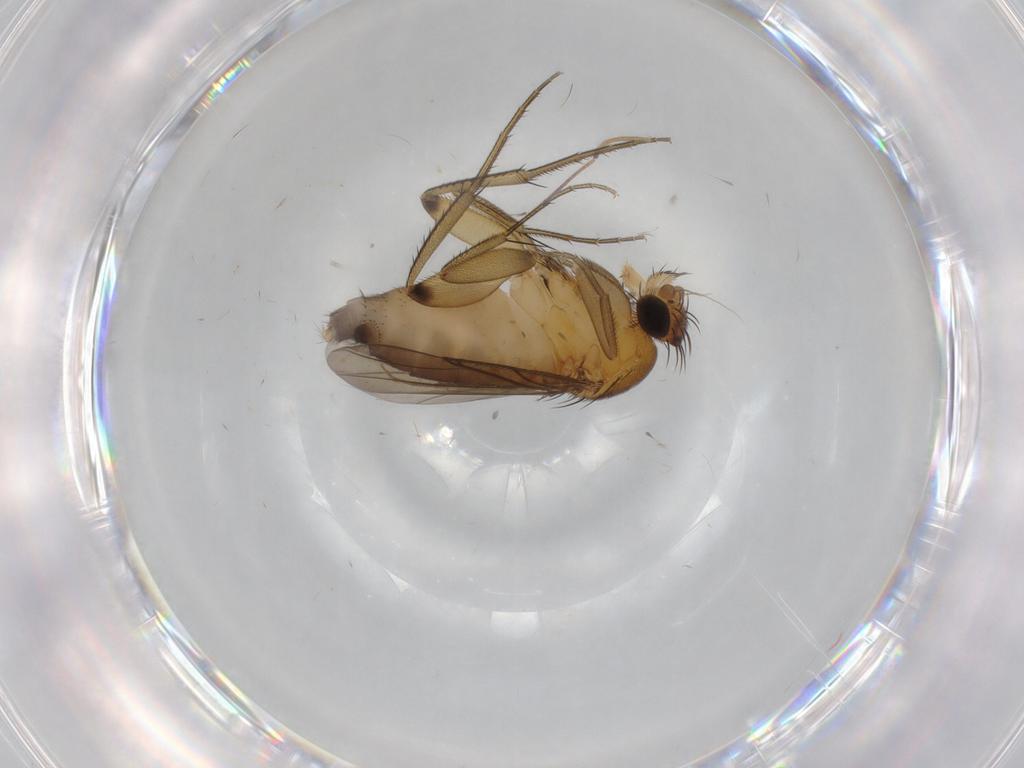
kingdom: Animalia
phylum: Arthropoda
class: Insecta
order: Diptera
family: Phoridae
